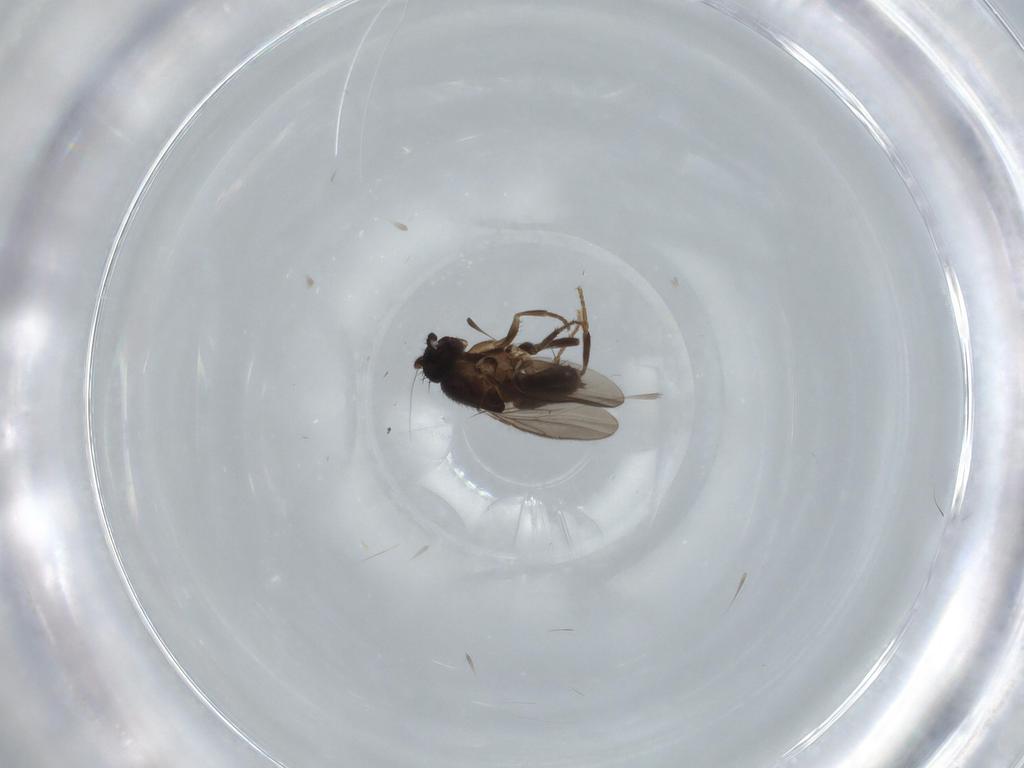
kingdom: Animalia
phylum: Arthropoda
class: Insecta
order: Diptera
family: Sphaeroceridae
